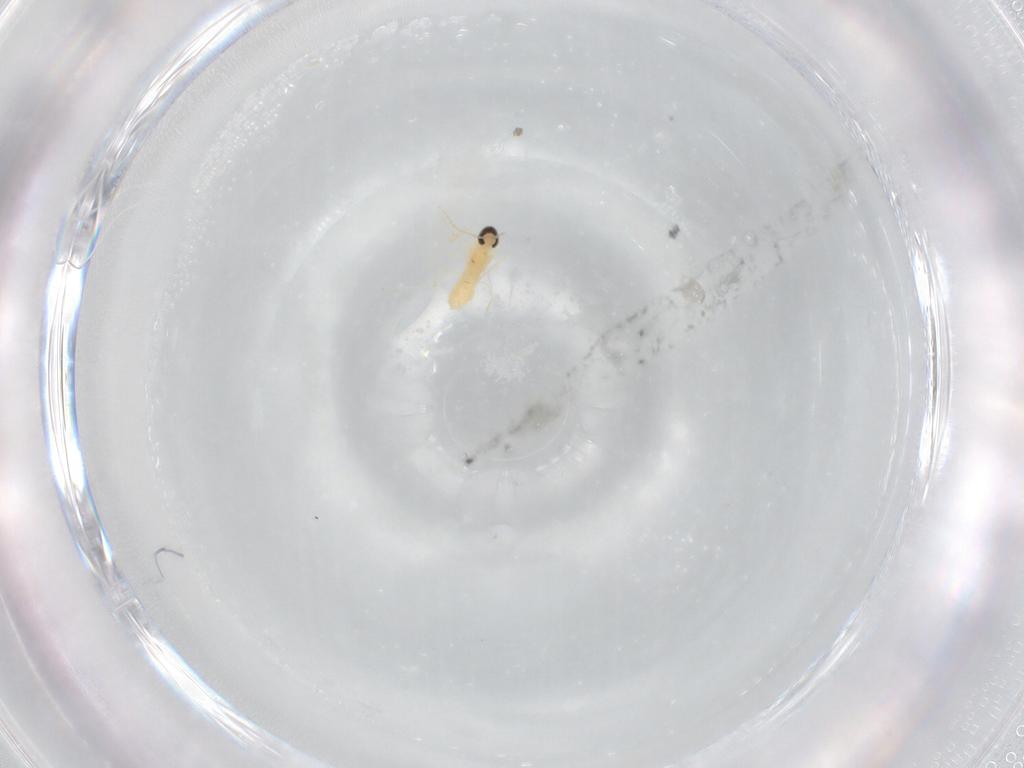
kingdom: Animalia
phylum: Arthropoda
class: Insecta
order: Diptera
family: Cecidomyiidae
